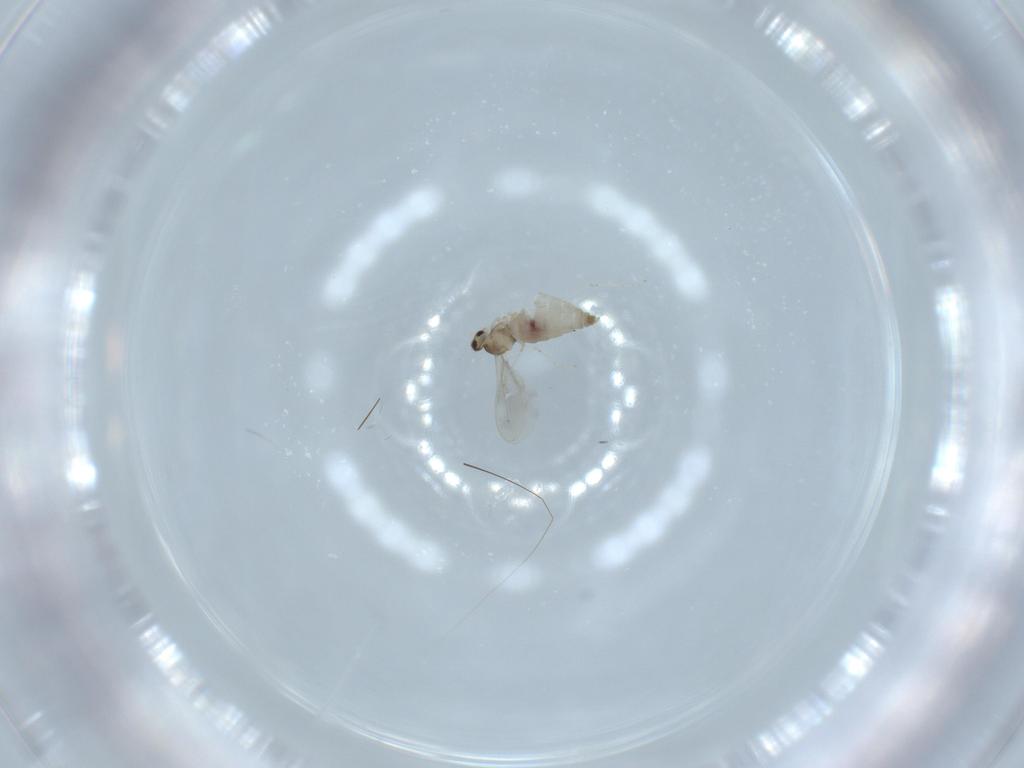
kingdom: Animalia
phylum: Arthropoda
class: Insecta
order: Diptera
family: Cecidomyiidae
